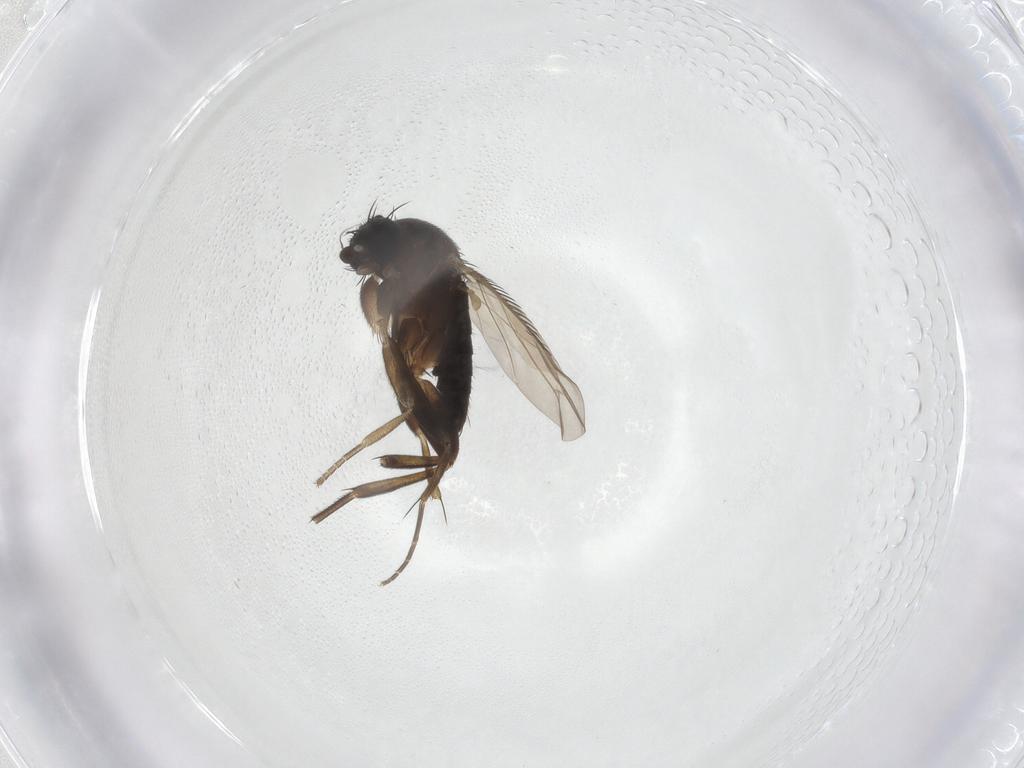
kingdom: Animalia
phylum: Arthropoda
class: Insecta
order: Diptera
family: Phoridae
